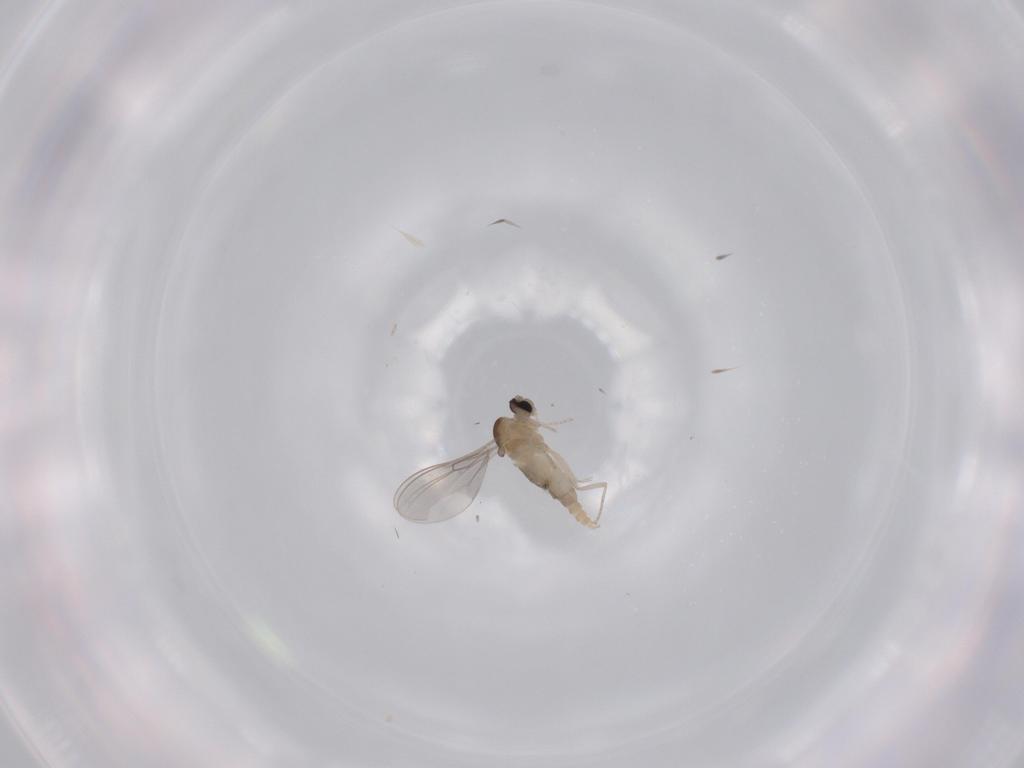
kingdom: Animalia
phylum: Arthropoda
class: Insecta
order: Diptera
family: Cecidomyiidae
